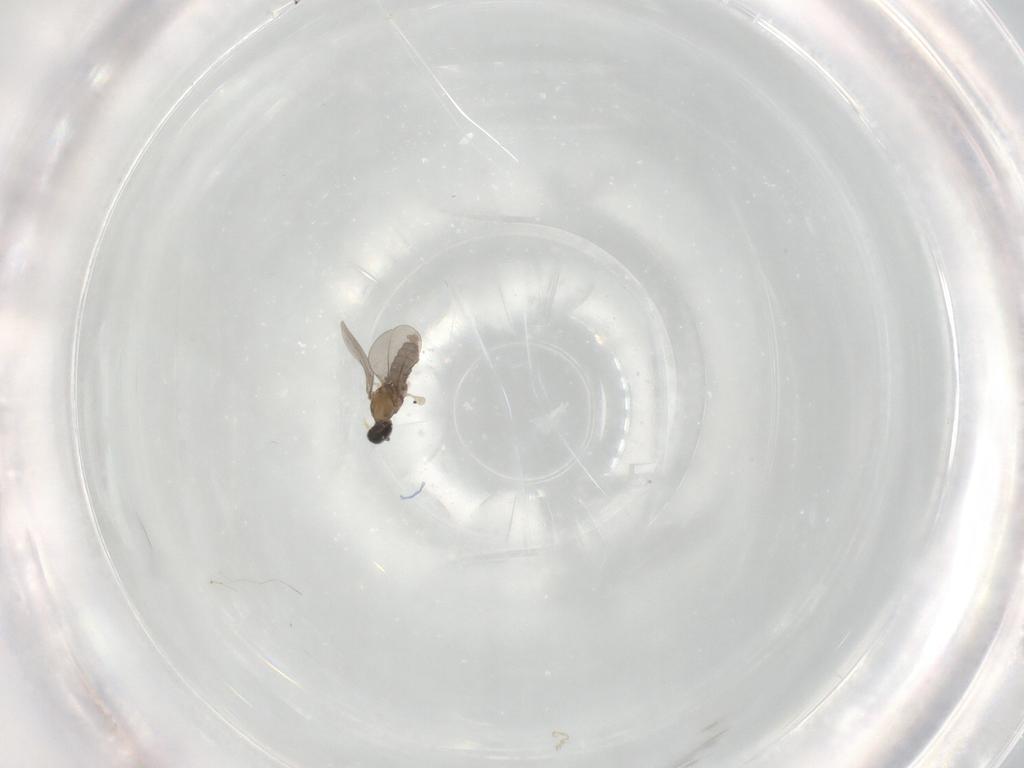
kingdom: Animalia
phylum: Arthropoda
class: Insecta
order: Diptera
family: Cecidomyiidae
